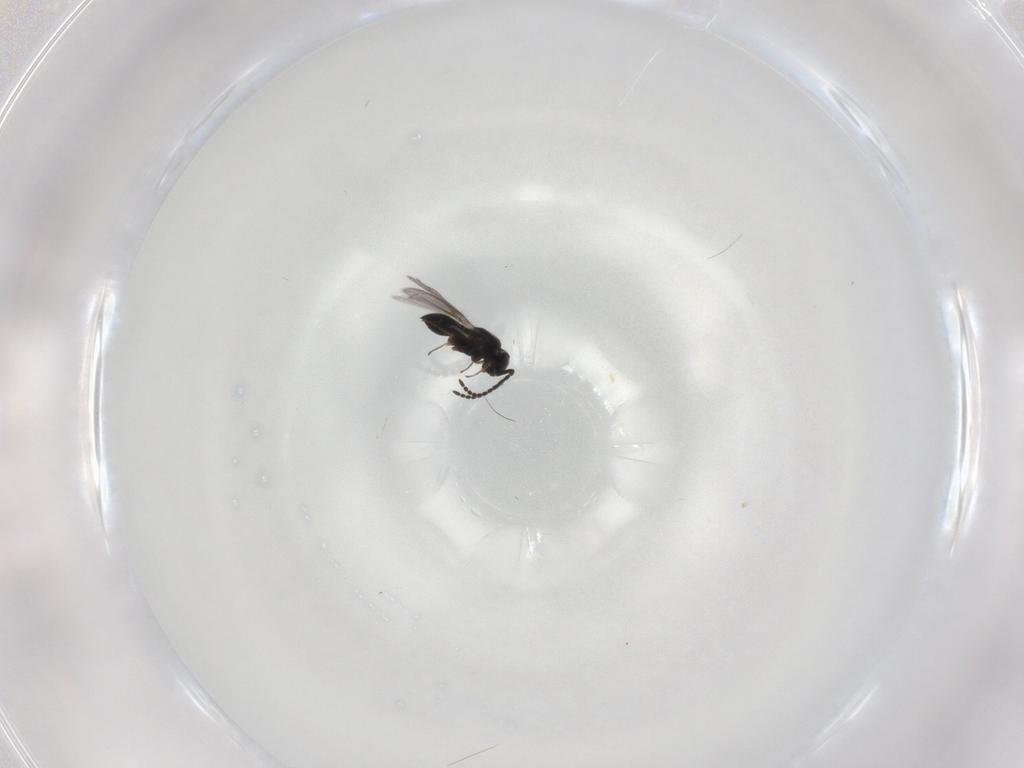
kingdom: Animalia
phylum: Arthropoda
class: Insecta
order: Hymenoptera
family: Scelionidae
